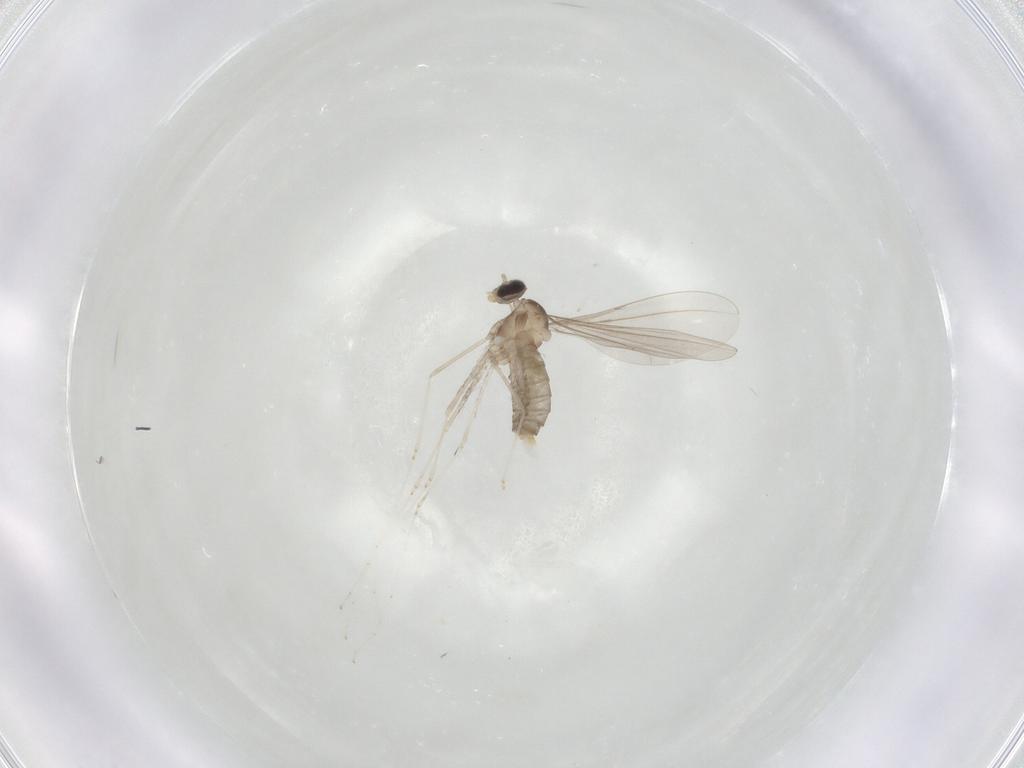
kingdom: Animalia
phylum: Arthropoda
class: Insecta
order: Diptera
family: Cecidomyiidae
